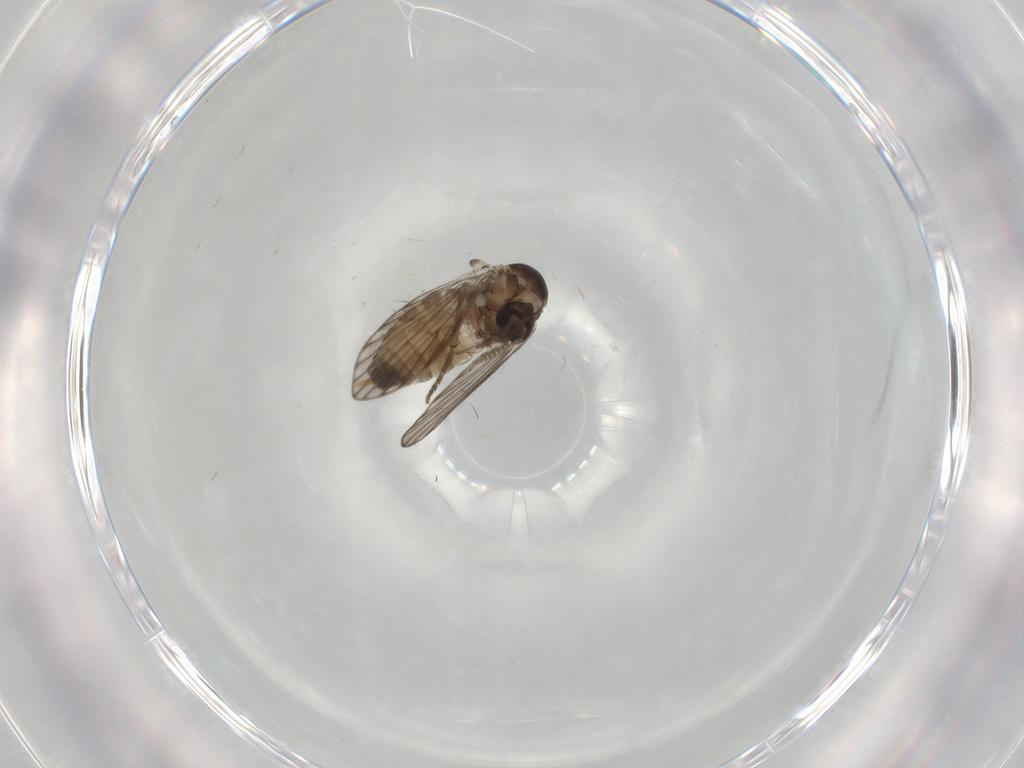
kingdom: Animalia
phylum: Arthropoda
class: Insecta
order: Diptera
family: Psychodidae
